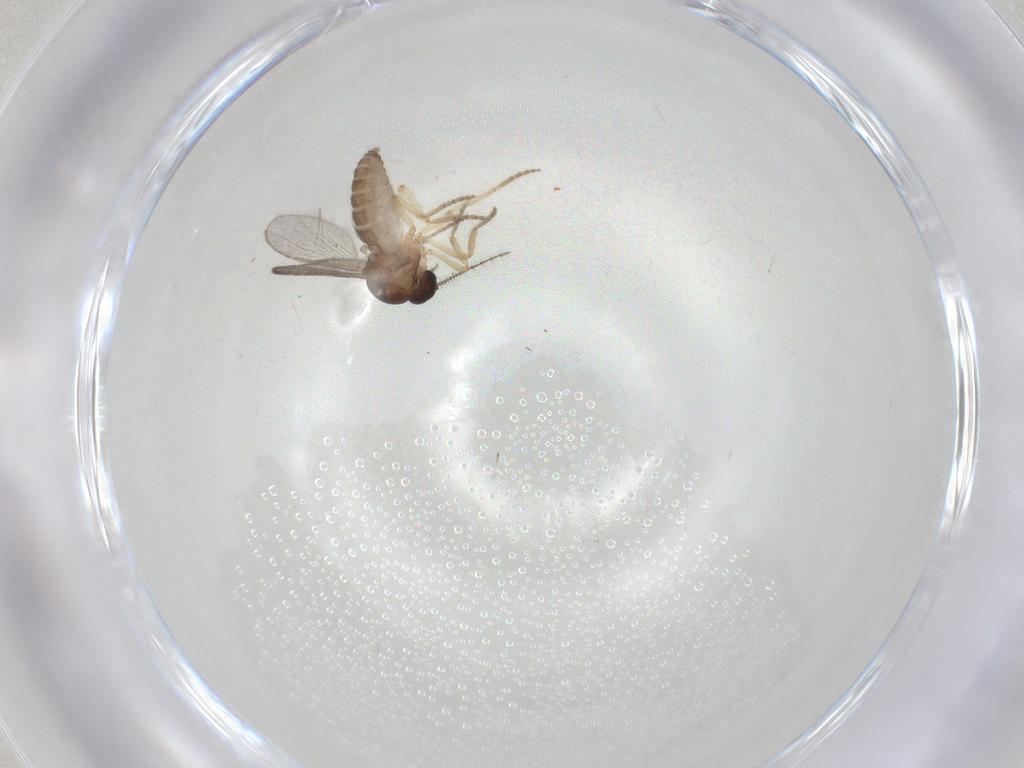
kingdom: Animalia
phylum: Arthropoda
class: Insecta
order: Diptera
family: Ceratopogonidae
